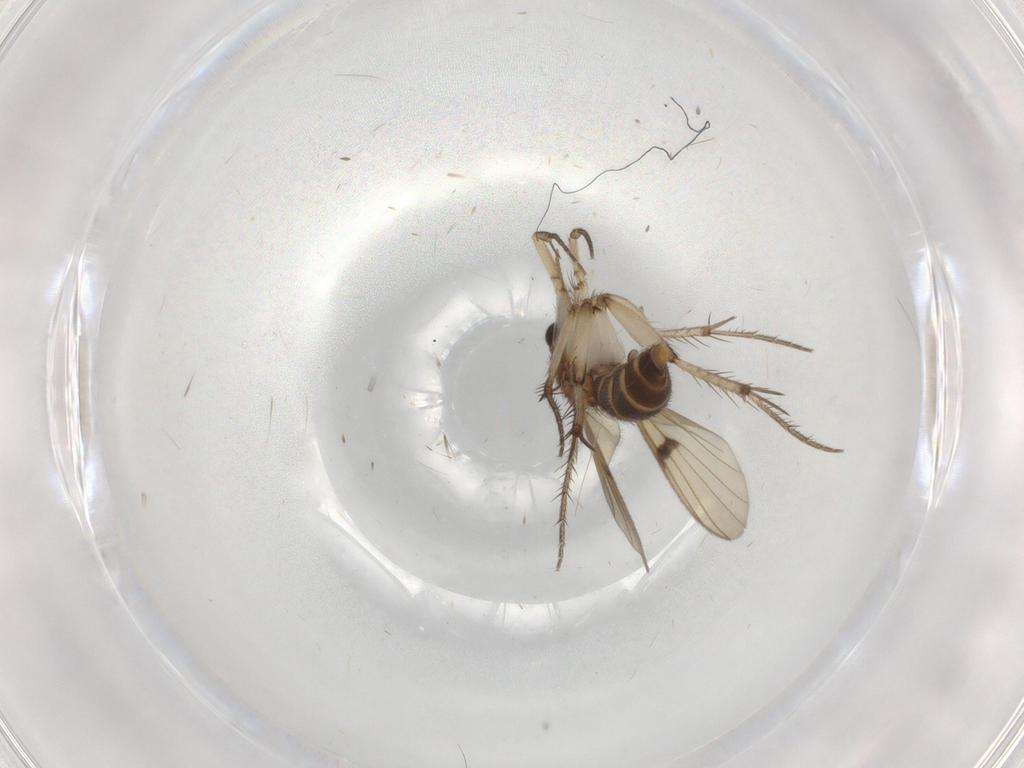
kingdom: Animalia
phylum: Arthropoda
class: Insecta
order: Diptera
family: Mycetophilidae
